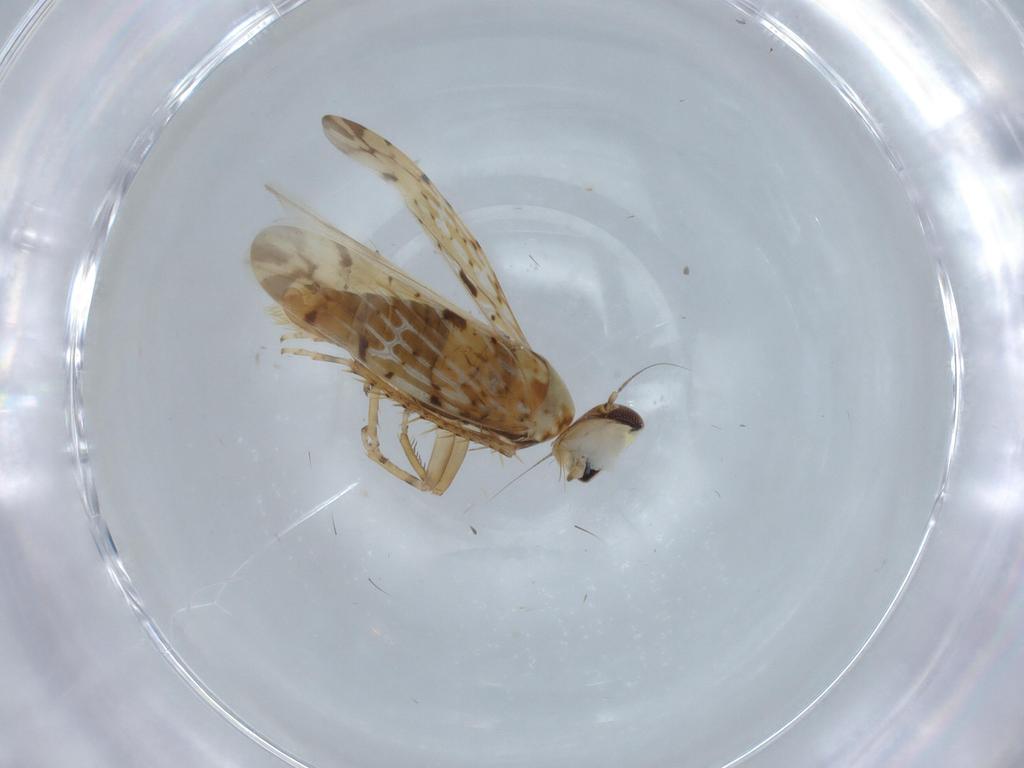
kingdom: Animalia
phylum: Arthropoda
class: Insecta
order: Hemiptera
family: Cicadellidae
